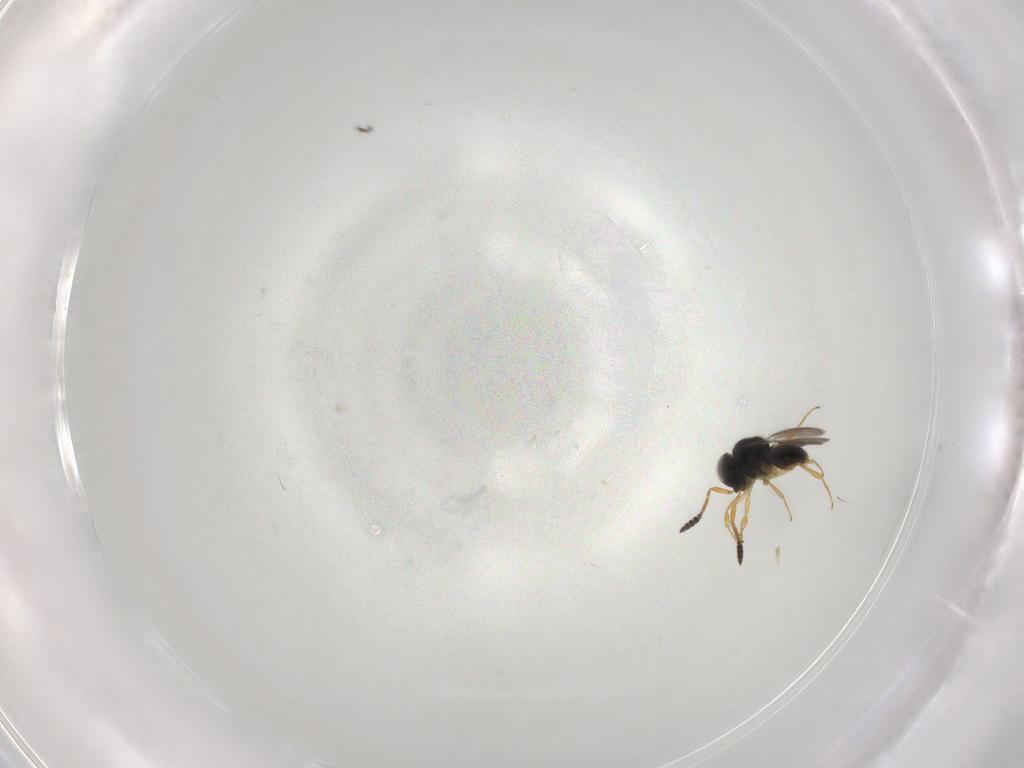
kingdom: Animalia
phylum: Arthropoda
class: Insecta
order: Hymenoptera
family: Scelionidae
